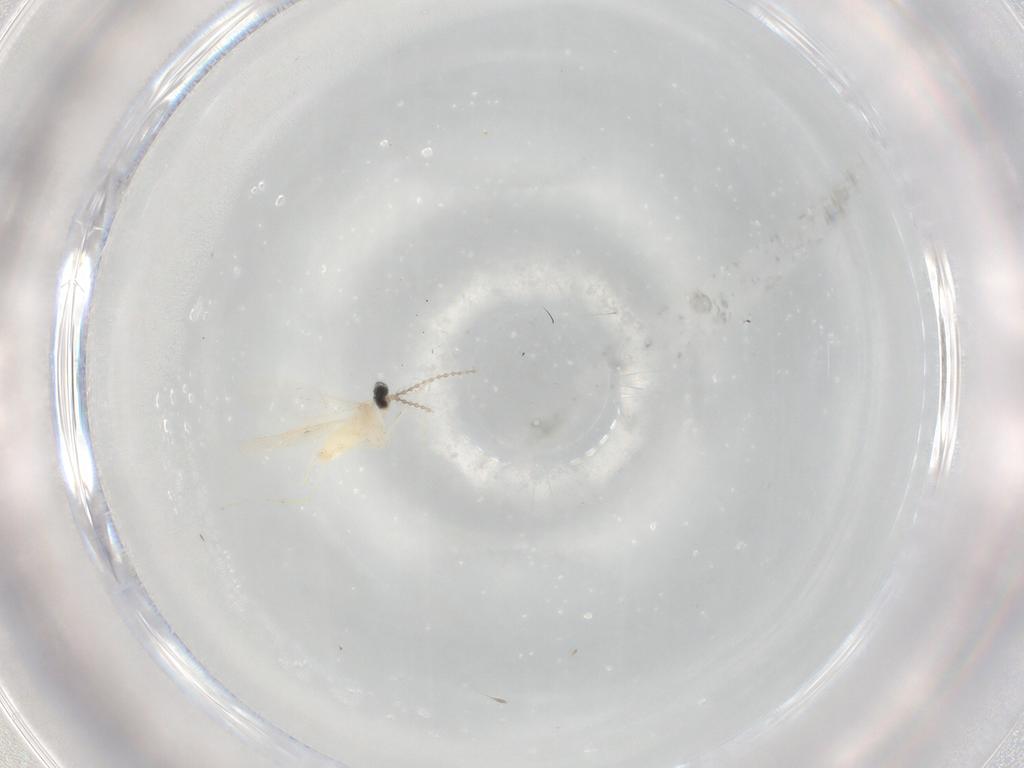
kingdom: Animalia
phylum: Arthropoda
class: Insecta
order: Diptera
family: Cecidomyiidae
